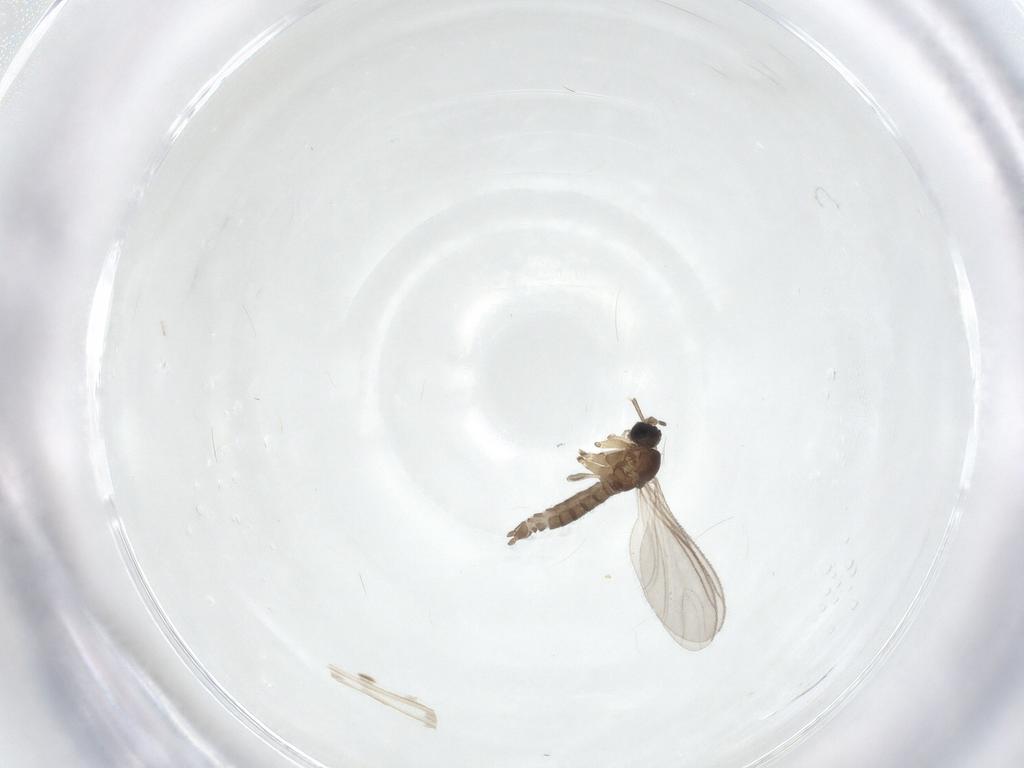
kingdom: Animalia
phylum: Arthropoda
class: Insecta
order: Diptera
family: Sciaridae
